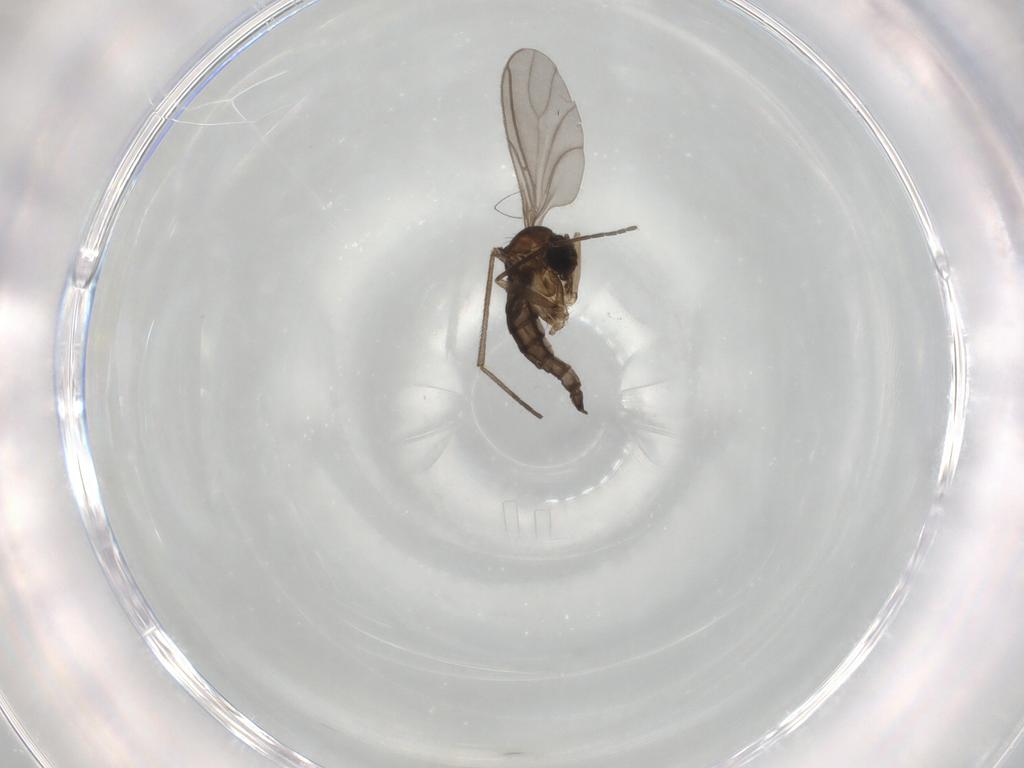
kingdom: Animalia
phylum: Arthropoda
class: Insecta
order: Diptera
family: Sciaridae
